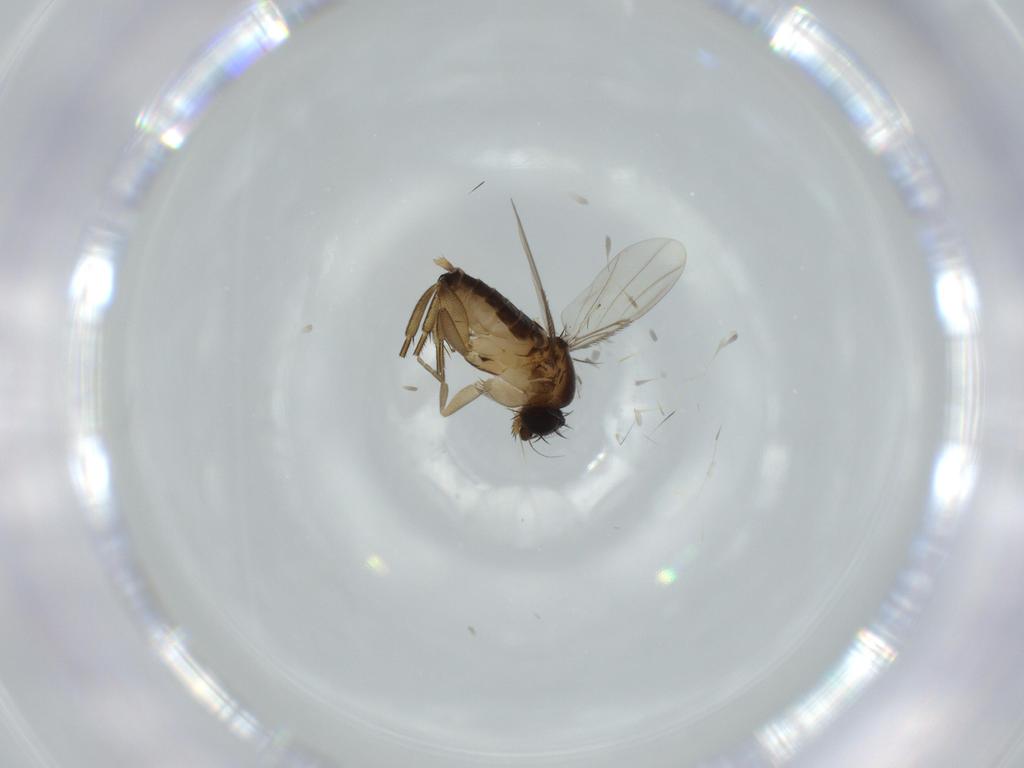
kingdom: Animalia
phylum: Arthropoda
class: Insecta
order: Diptera
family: Phoridae
